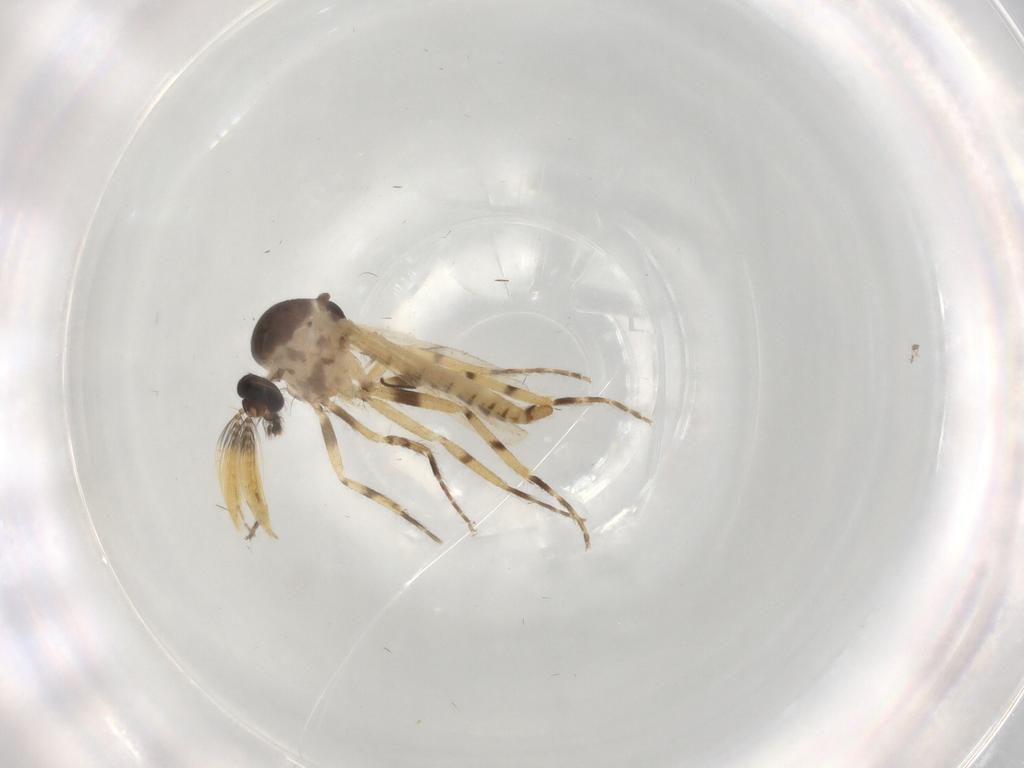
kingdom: Animalia
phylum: Arthropoda
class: Insecta
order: Diptera
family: Ceratopogonidae
